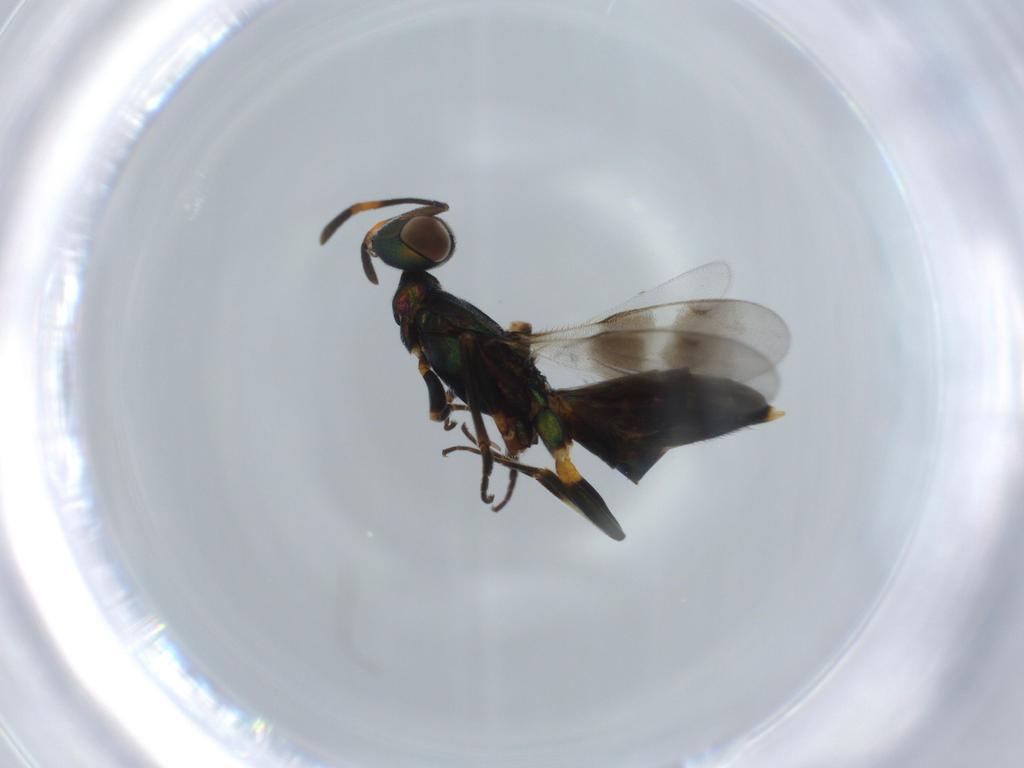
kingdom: Animalia
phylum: Arthropoda
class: Insecta
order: Hymenoptera
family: Eupelmidae
